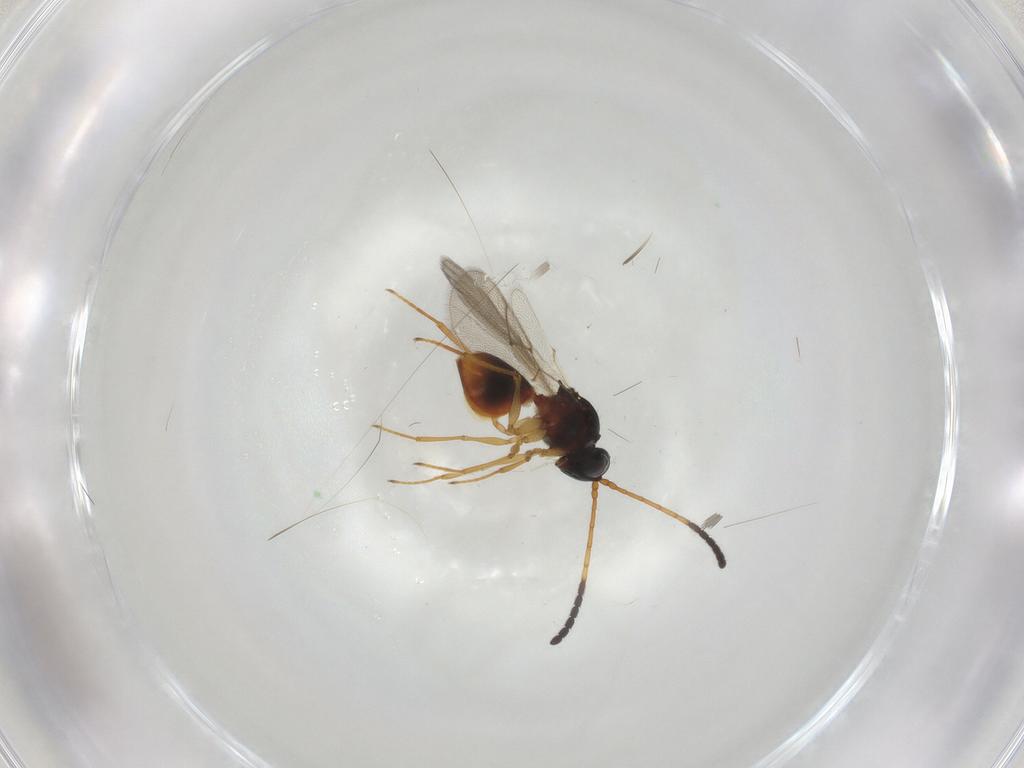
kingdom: Animalia
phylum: Arthropoda
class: Insecta
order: Hymenoptera
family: Figitidae
